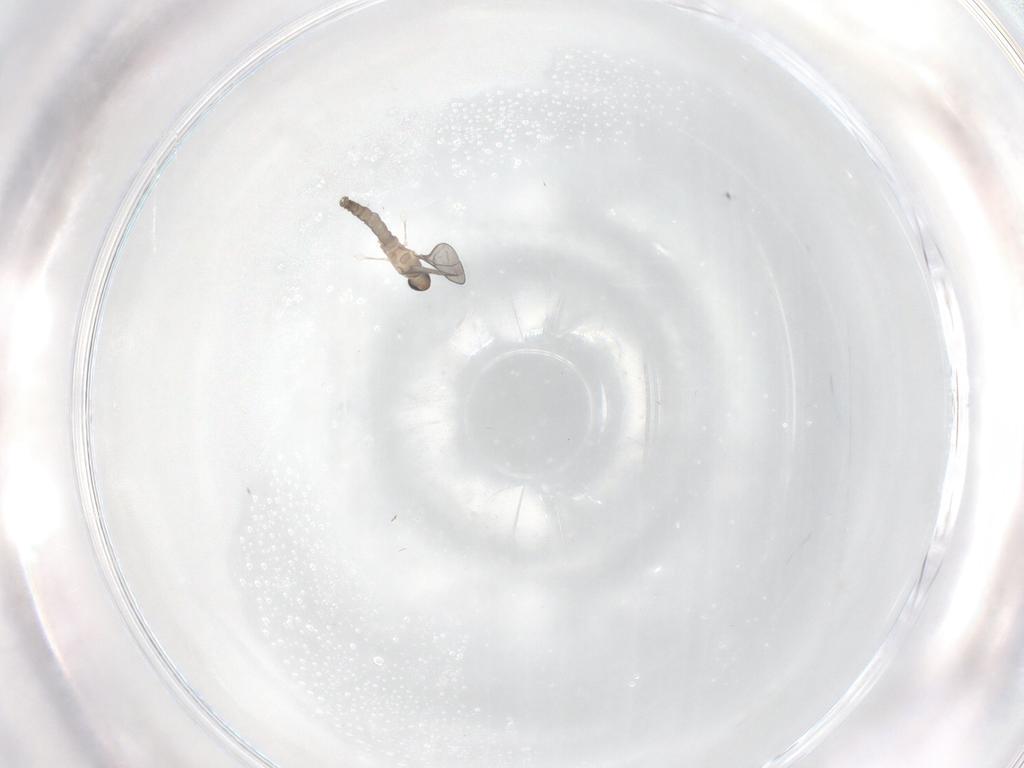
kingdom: Animalia
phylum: Arthropoda
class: Insecta
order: Diptera
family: Cecidomyiidae
